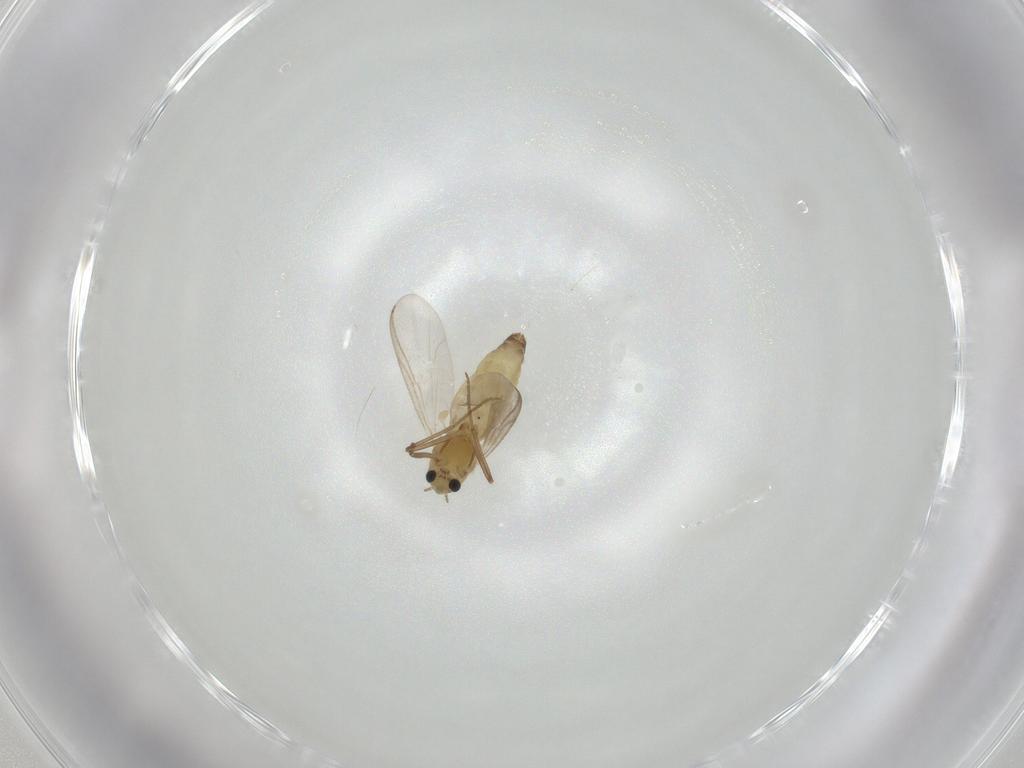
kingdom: Animalia
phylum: Arthropoda
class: Insecta
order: Diptera
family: Chironomidae
